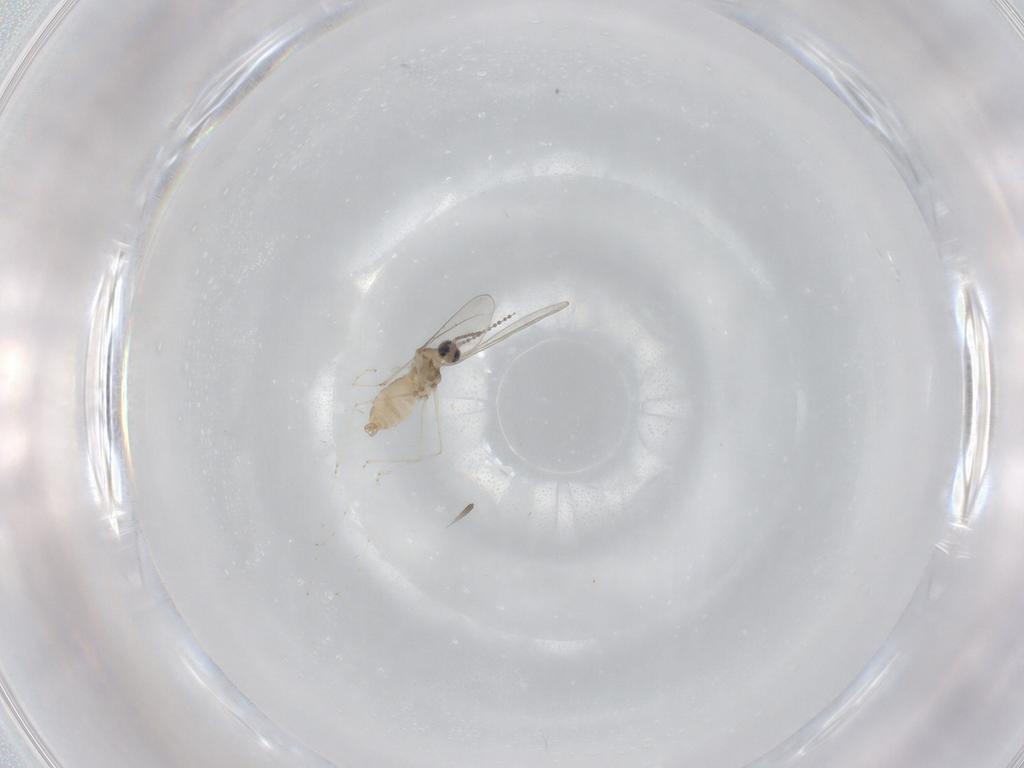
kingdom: Animalia
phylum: Arthropoda
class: Insecta
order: Diptera
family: Cecidomyiidae
